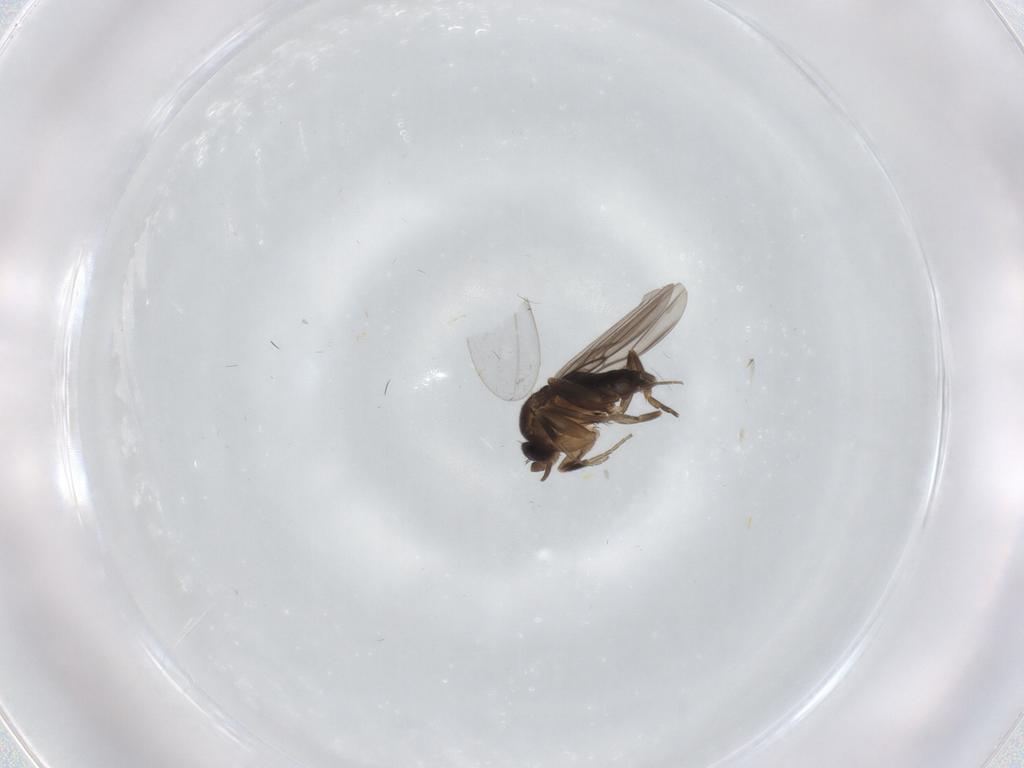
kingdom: Animalia
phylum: Arthropoda
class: Insecta
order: Diptera
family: Phoridae
